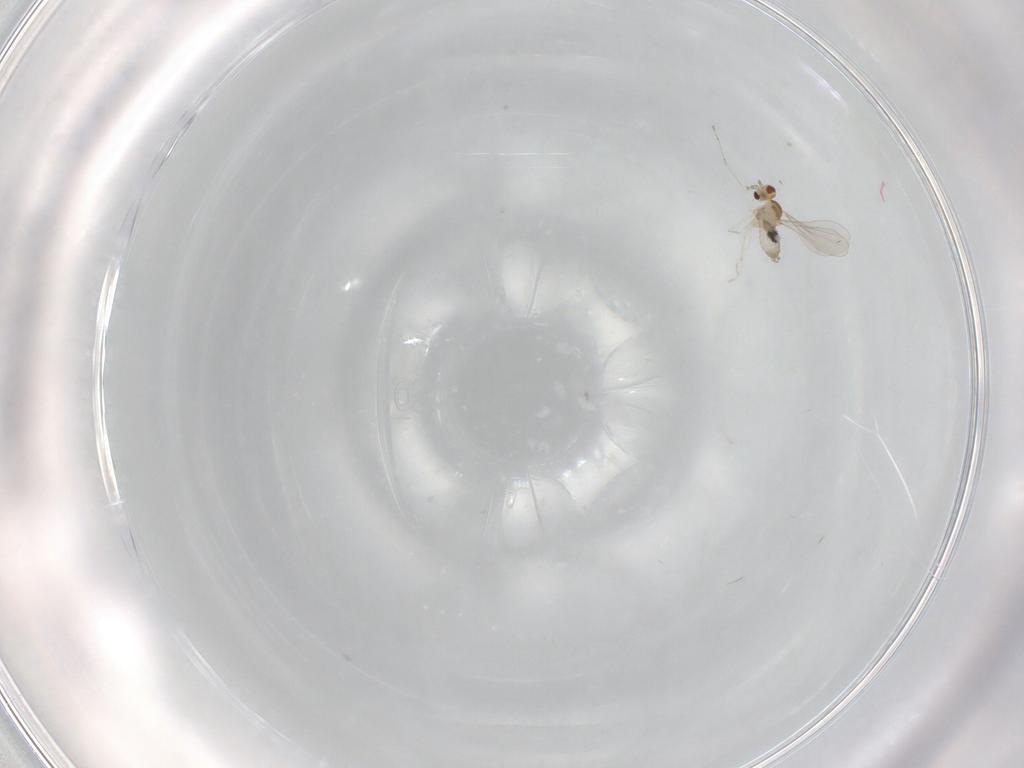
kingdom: Animalia
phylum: Arthropoda
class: Insecta
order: Diptera
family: Cecidomyiidae
